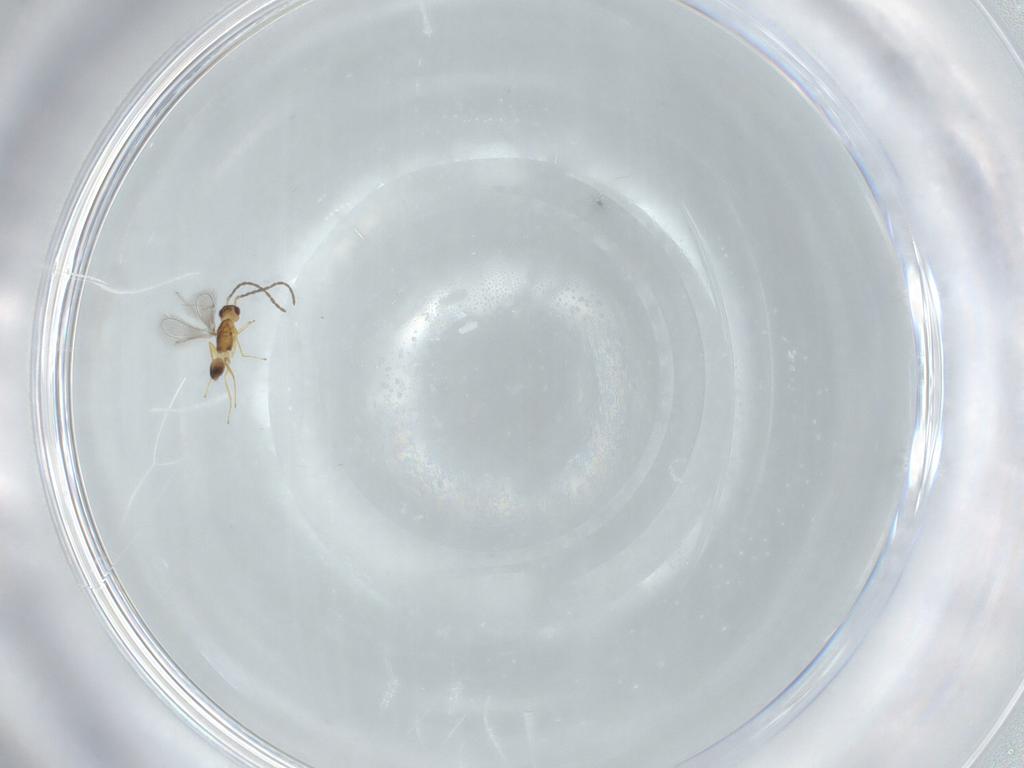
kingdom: Animalia
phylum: Arthropoda
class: Insecta
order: Hymenoptera
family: Mymaridae
